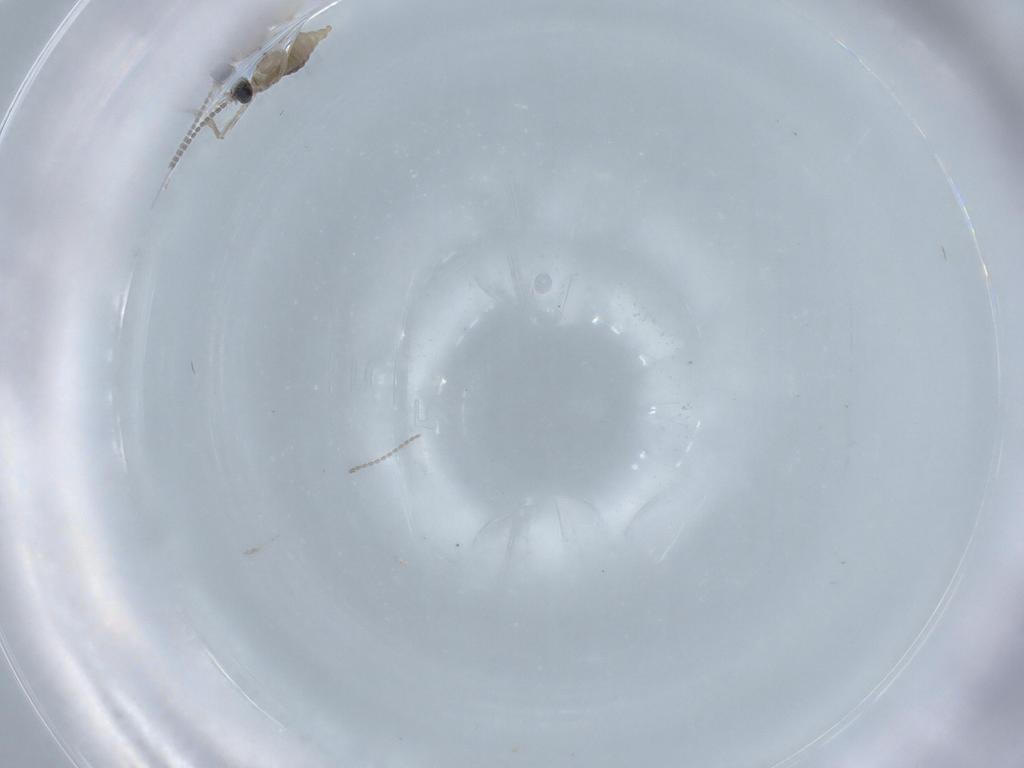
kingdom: Animalia
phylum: Arthropoda
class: Insecta
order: Diptera
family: Cecidomyiidae
